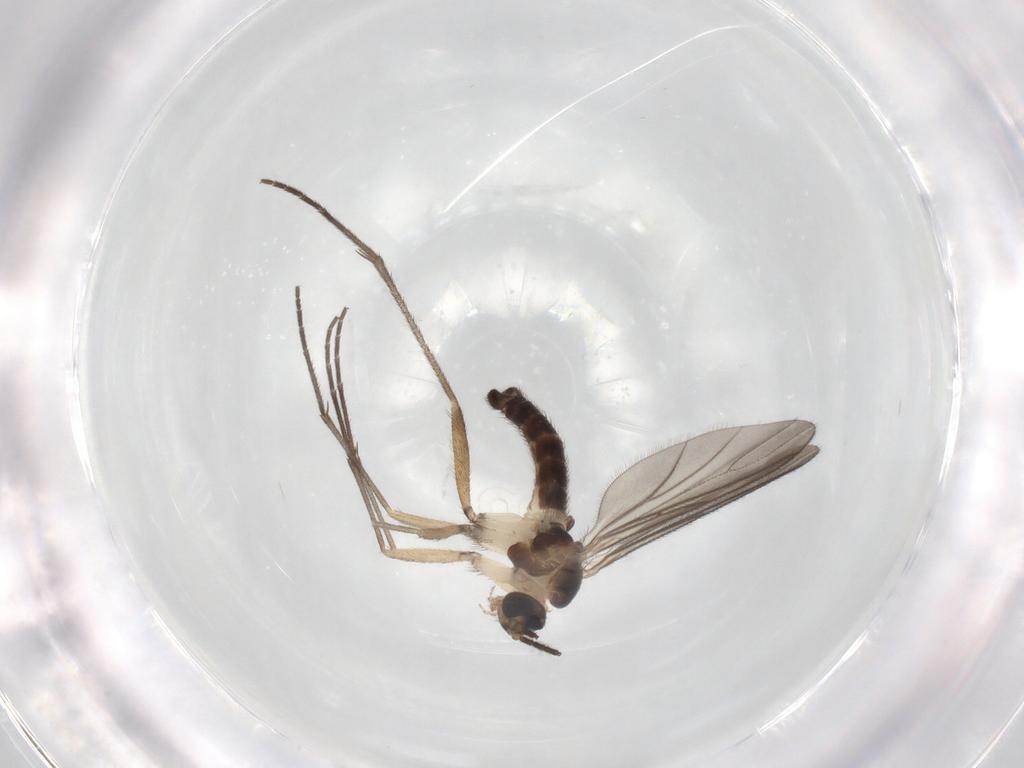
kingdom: Animalia
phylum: Arthropoda
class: Insecta
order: Diptera
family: Sciaridae
